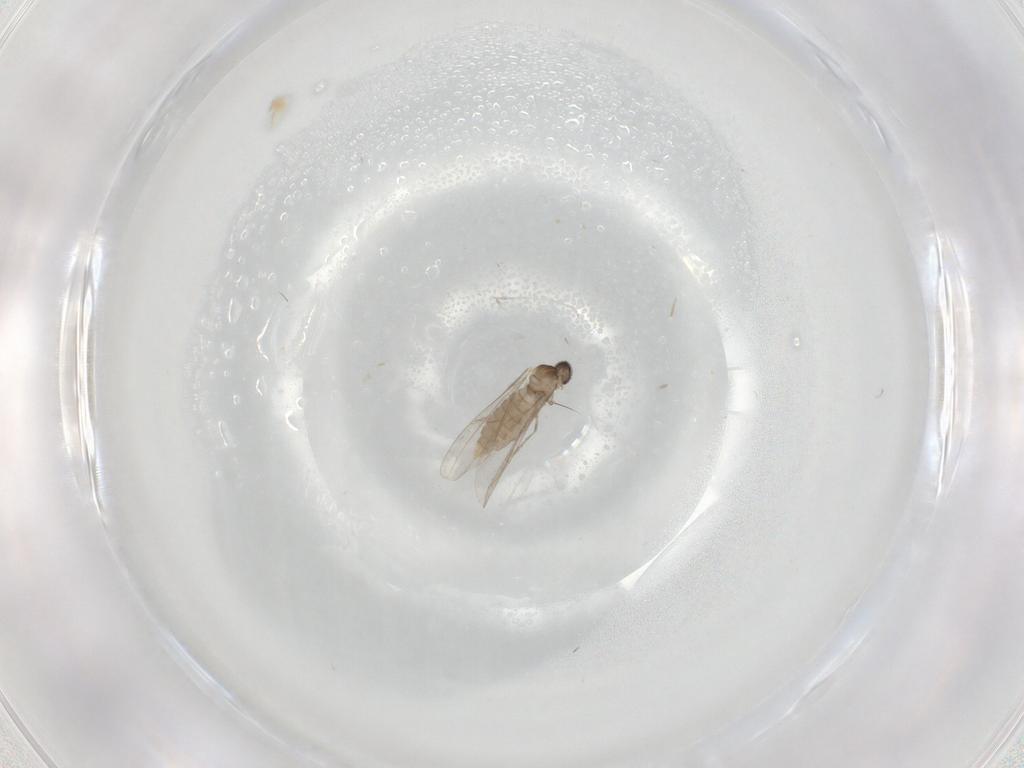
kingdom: Animalia
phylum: Arthropoda
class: Insecta
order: Diptera
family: Cecidomyiidae
